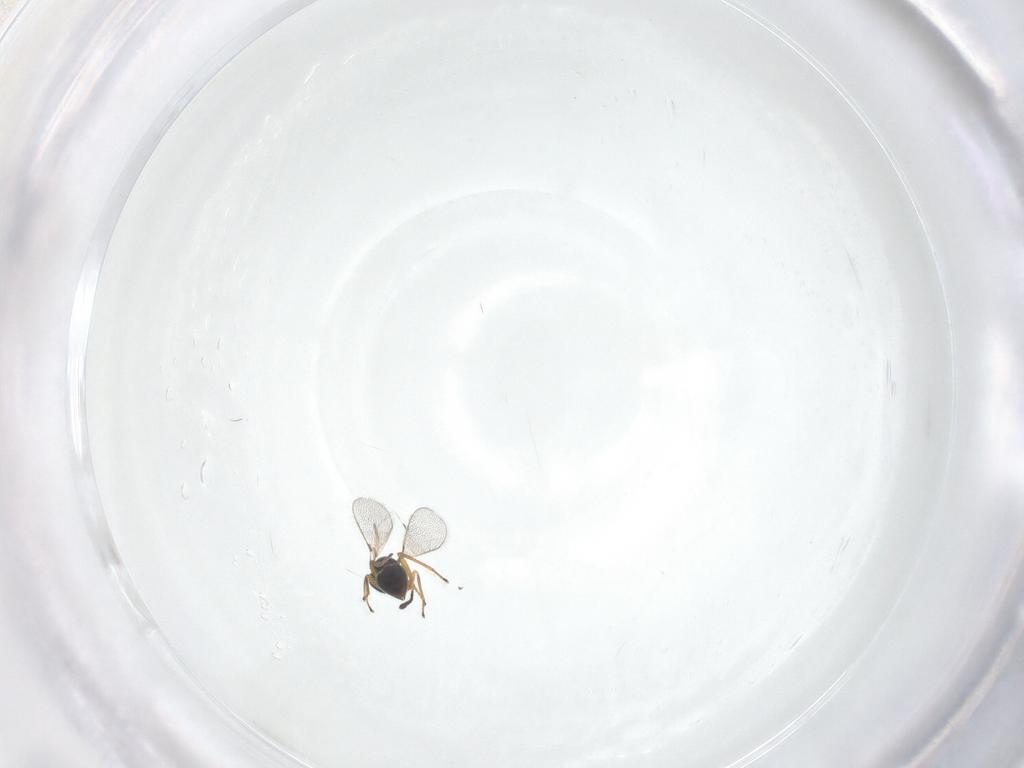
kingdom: Animalia
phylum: Arthropoda
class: Insecta
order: Hymenoptera
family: Mymaridae
